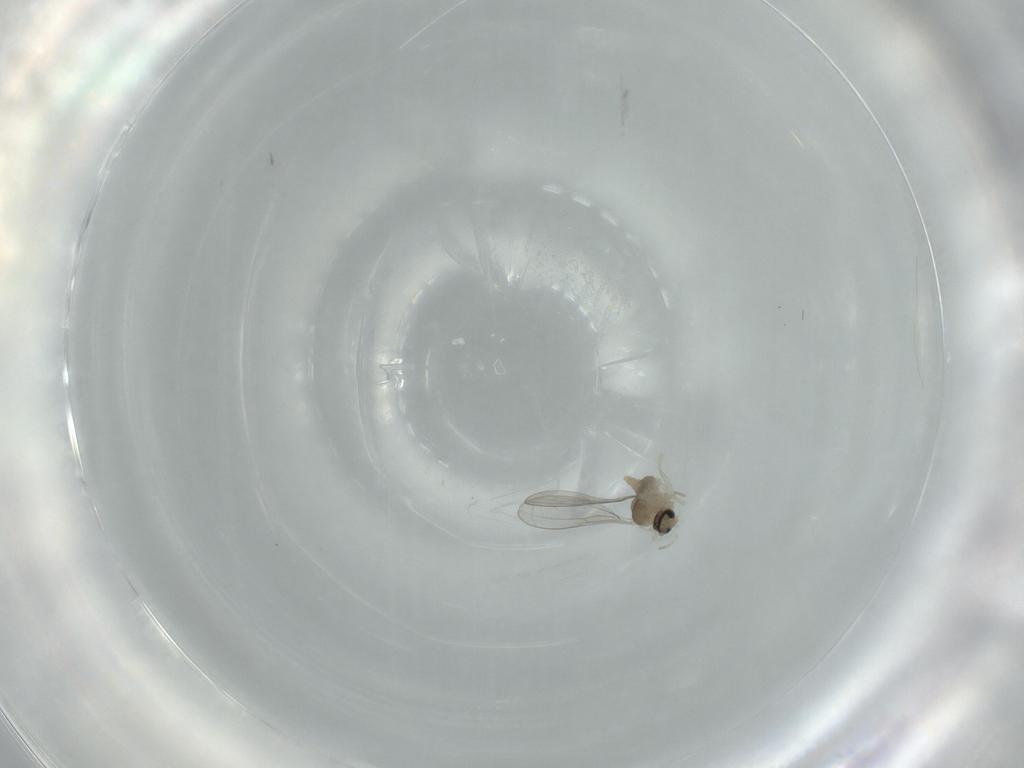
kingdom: Animalia
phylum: Arthropoda
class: Insecta
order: Diptera
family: Cecidomyiidae
